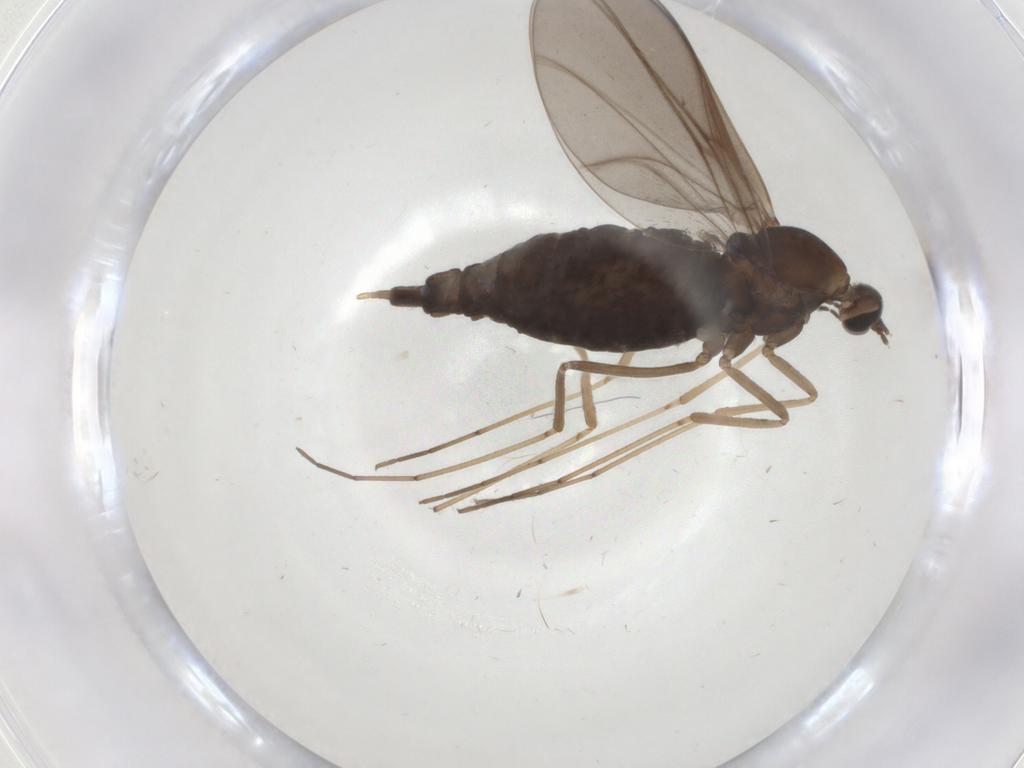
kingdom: Animalia
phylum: Arthropoda
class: Insecta
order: Diptera
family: Cecidomyiidae
